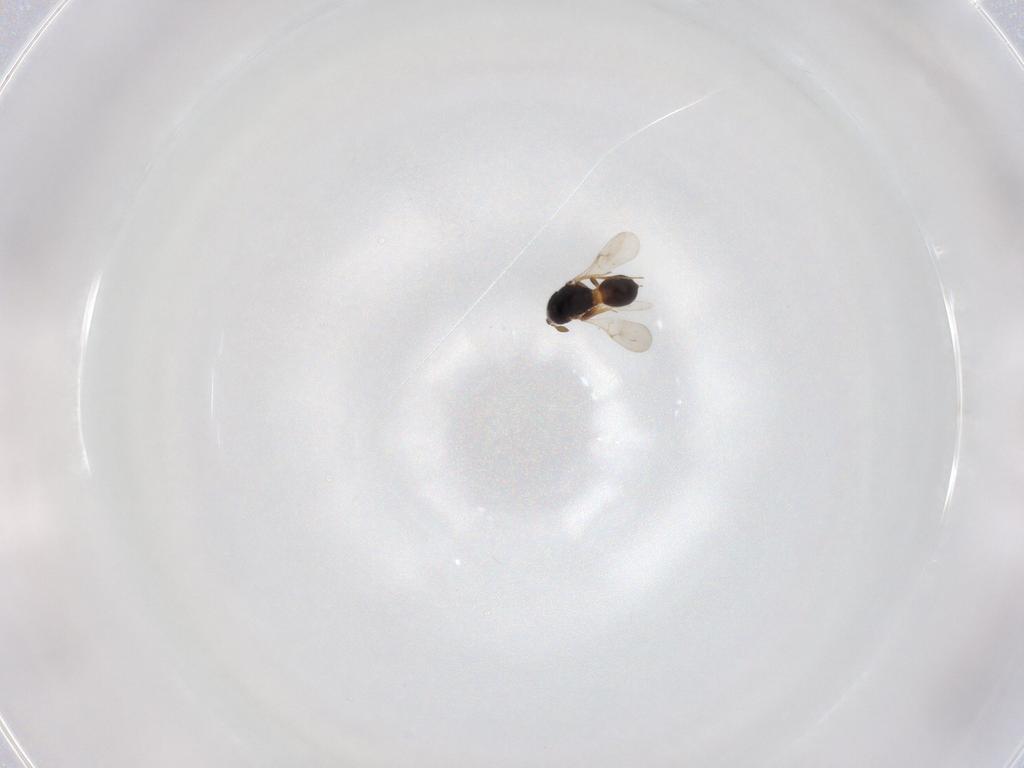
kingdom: Animalia
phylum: Arthropoda
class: Insecta
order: Hymenoptera
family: Scelionidae
